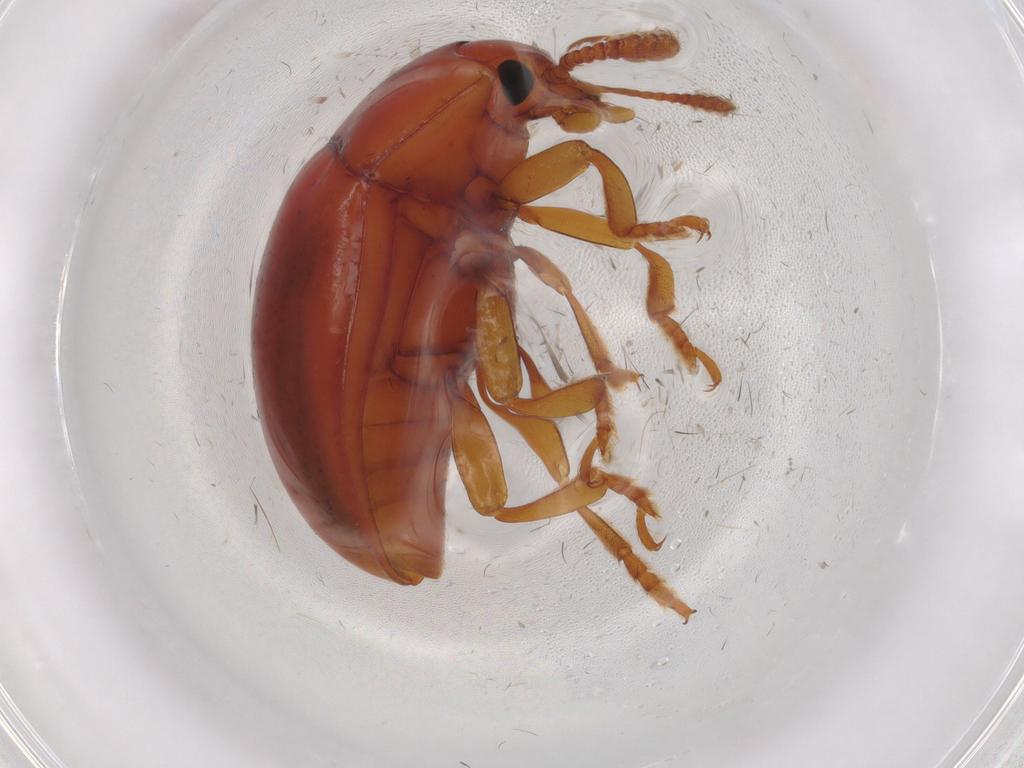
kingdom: Animalia
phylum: Arthropoda
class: Insecta
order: Coleoptera
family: Erotylidae
